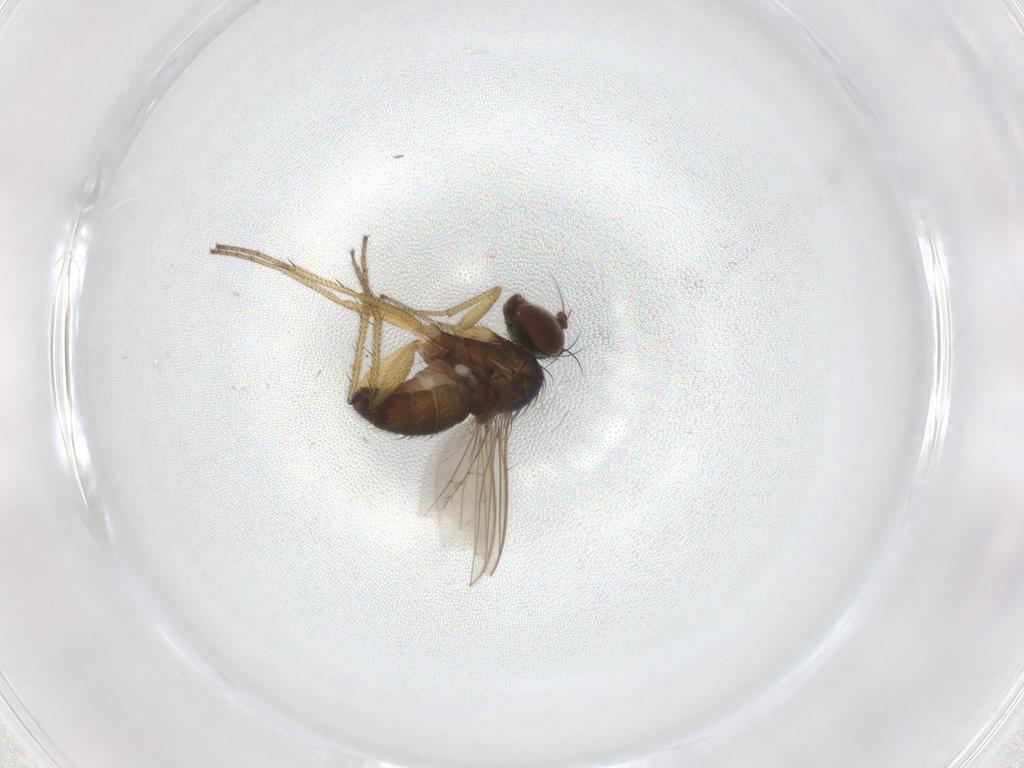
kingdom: Animalia
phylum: Arthropoda
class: Insecta
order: Diptera
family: Dolichopodidae
